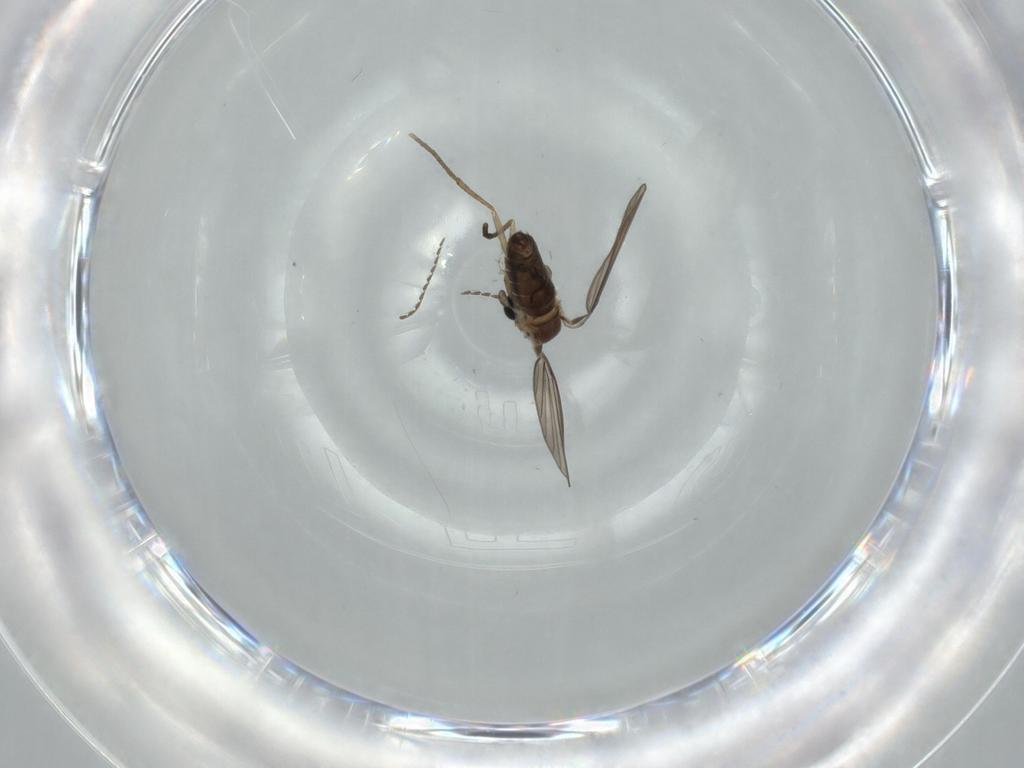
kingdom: Animalia
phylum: Arthropoda
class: Insecta
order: Diptera
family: Psychodidae
